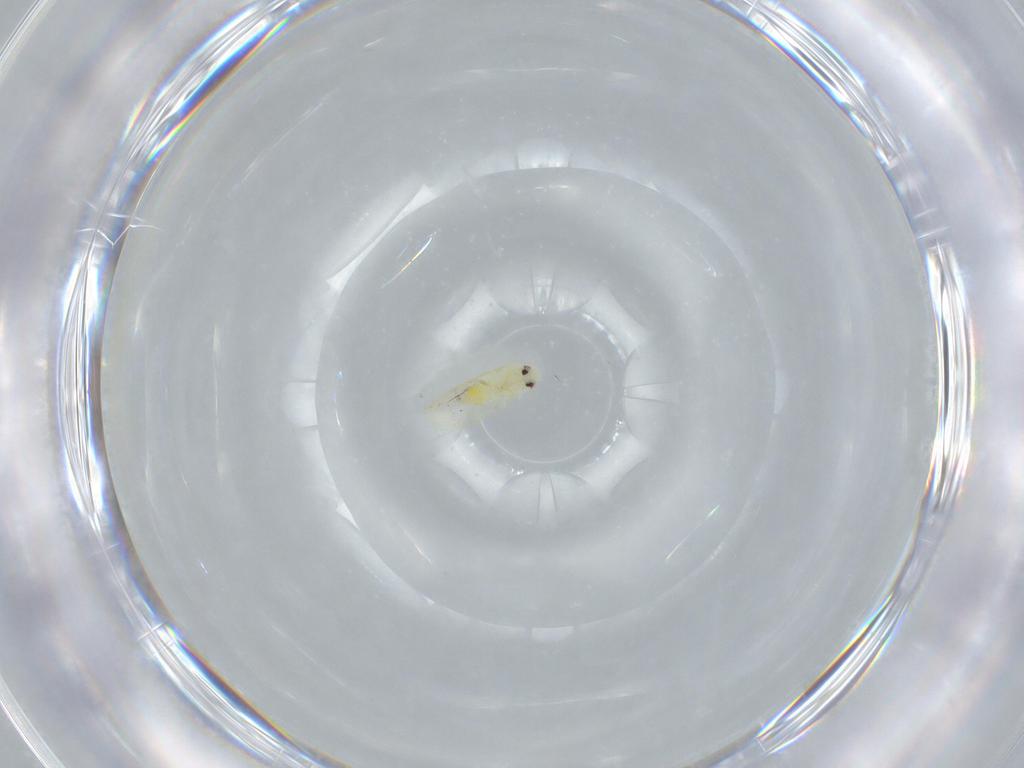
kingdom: Animalia
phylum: Arthropoda
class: Insecta
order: Hemiptera
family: Aleyrodidae
